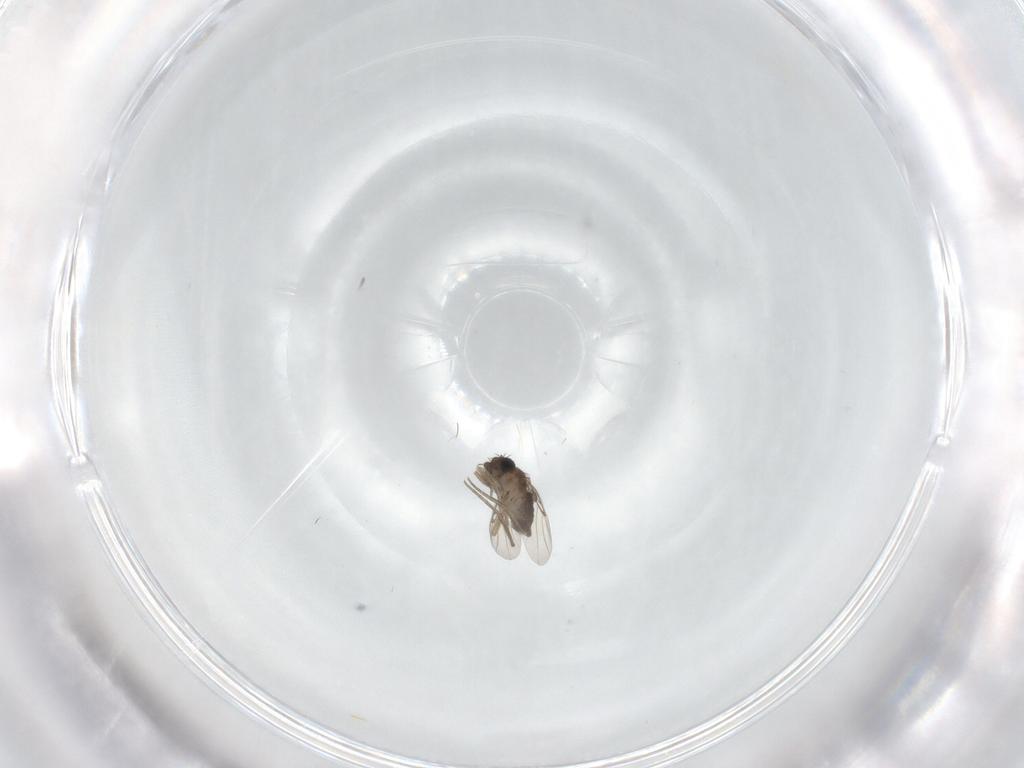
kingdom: Animalia
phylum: Arthropoda
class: Insecta
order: Diptera
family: Phoridae
